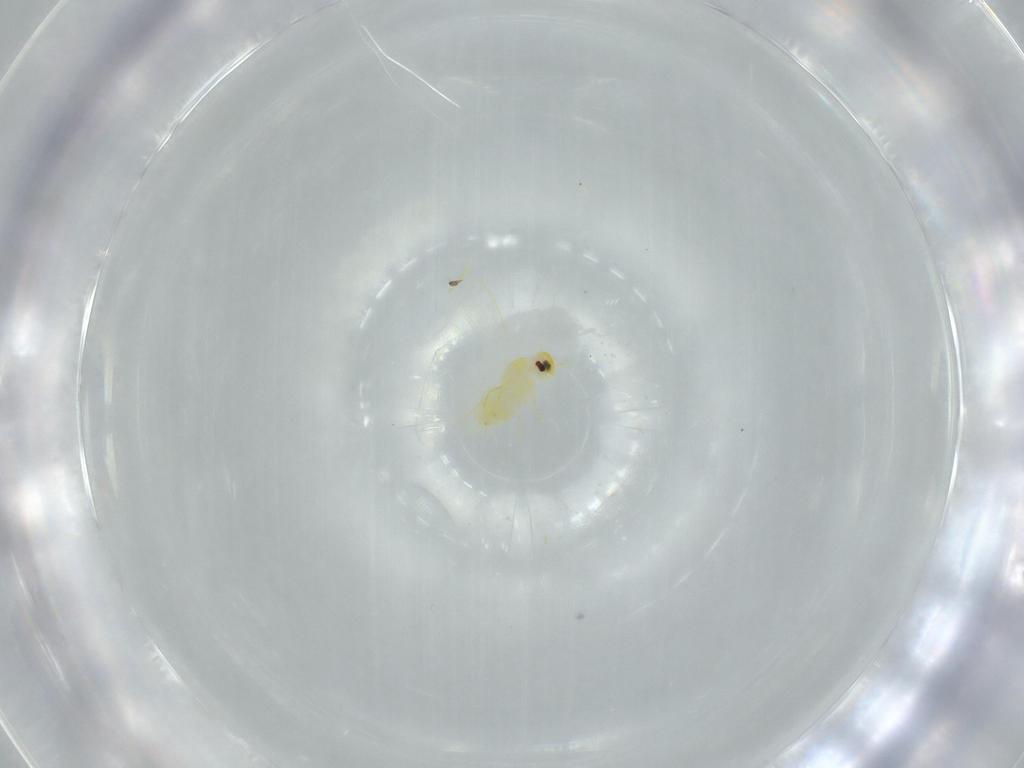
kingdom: Animalia
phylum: Arthropoda
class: Insecta
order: Hemiptera
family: Aleyrodidae
